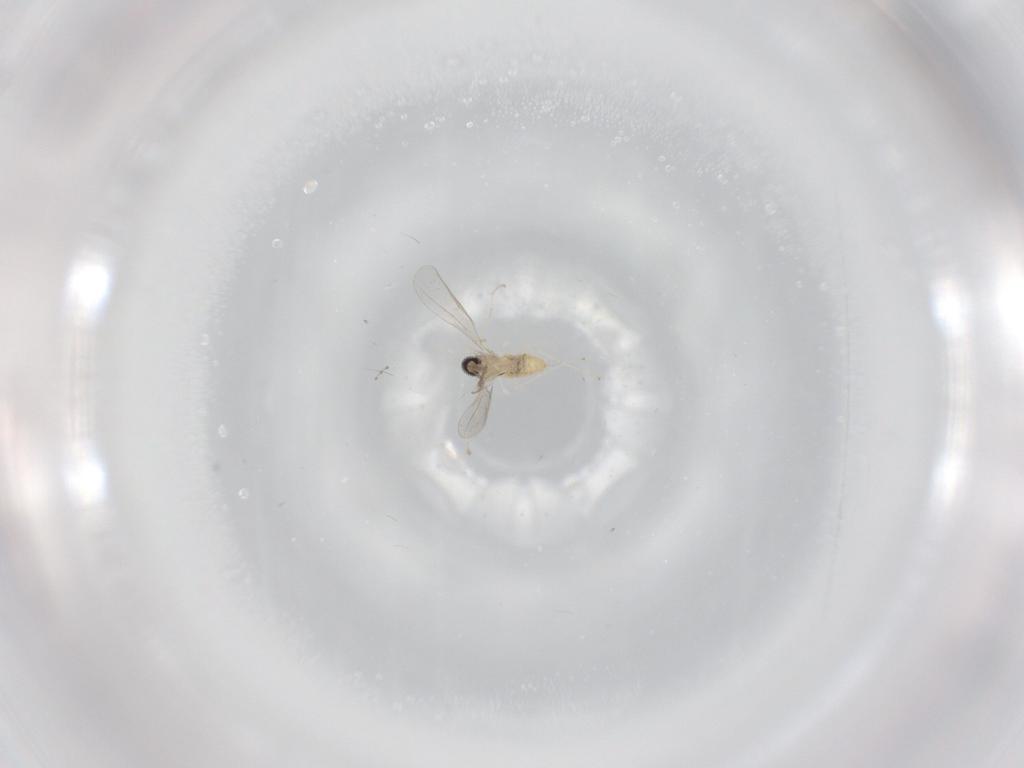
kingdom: Animalia
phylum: Arthropoda
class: Insecta
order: Diptera
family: Cecidomyiidae
